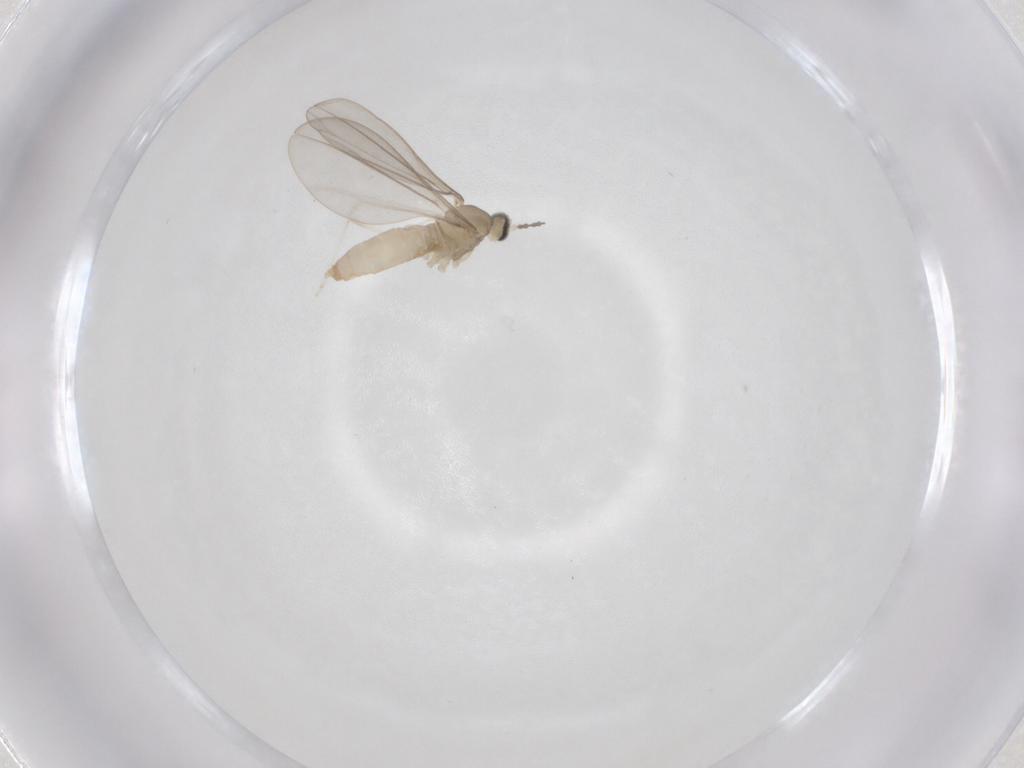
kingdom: Animalia
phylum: Arthropoda
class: Insecta
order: Diptera
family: Cecidomyiidae
